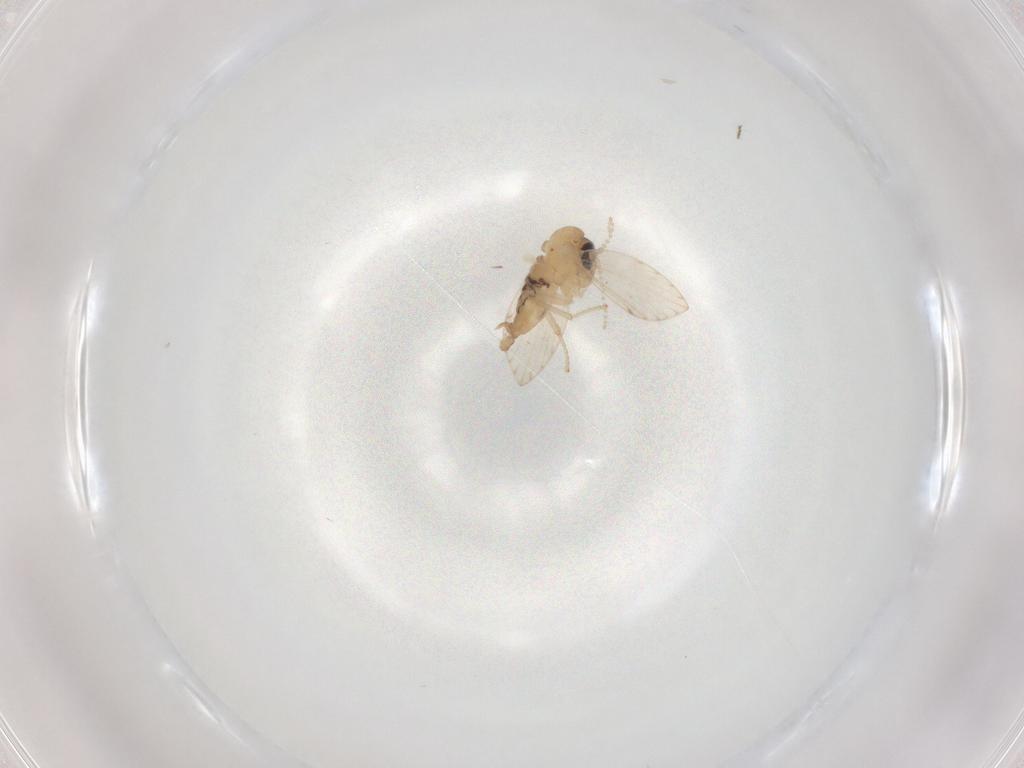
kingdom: Animalia
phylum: Arthropoda
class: Insecta
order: Diptera
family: Psychodidae
